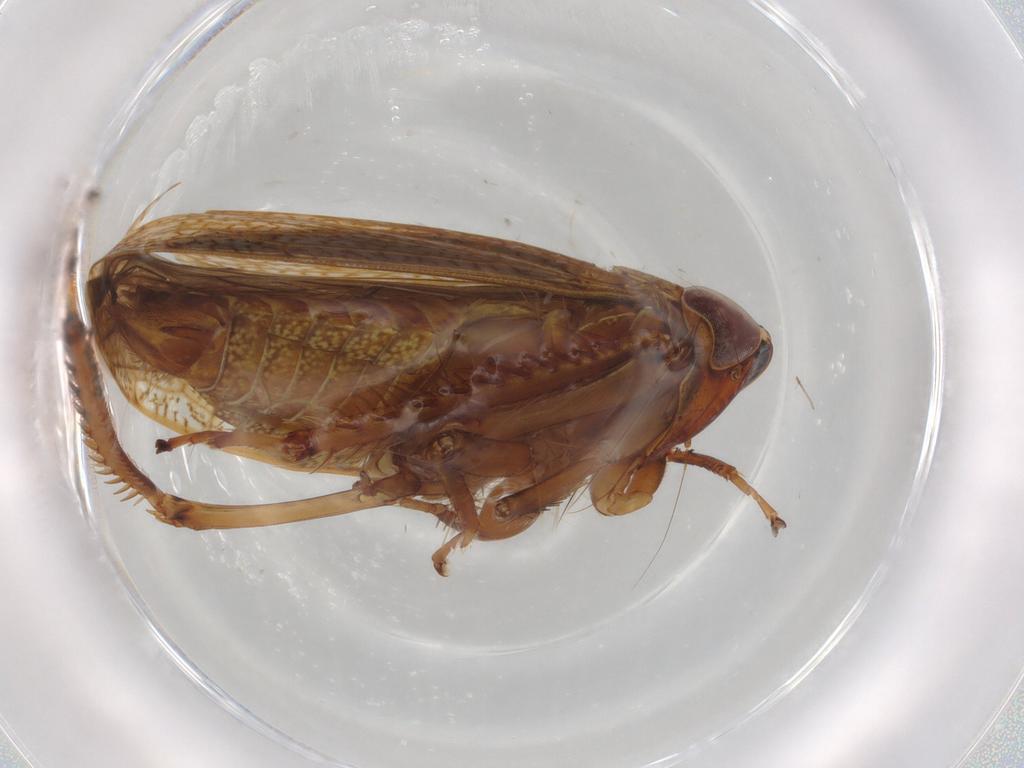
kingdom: Animalia
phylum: Arthropoda
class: Insecta
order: Hemiptera
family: Cicadellidae
